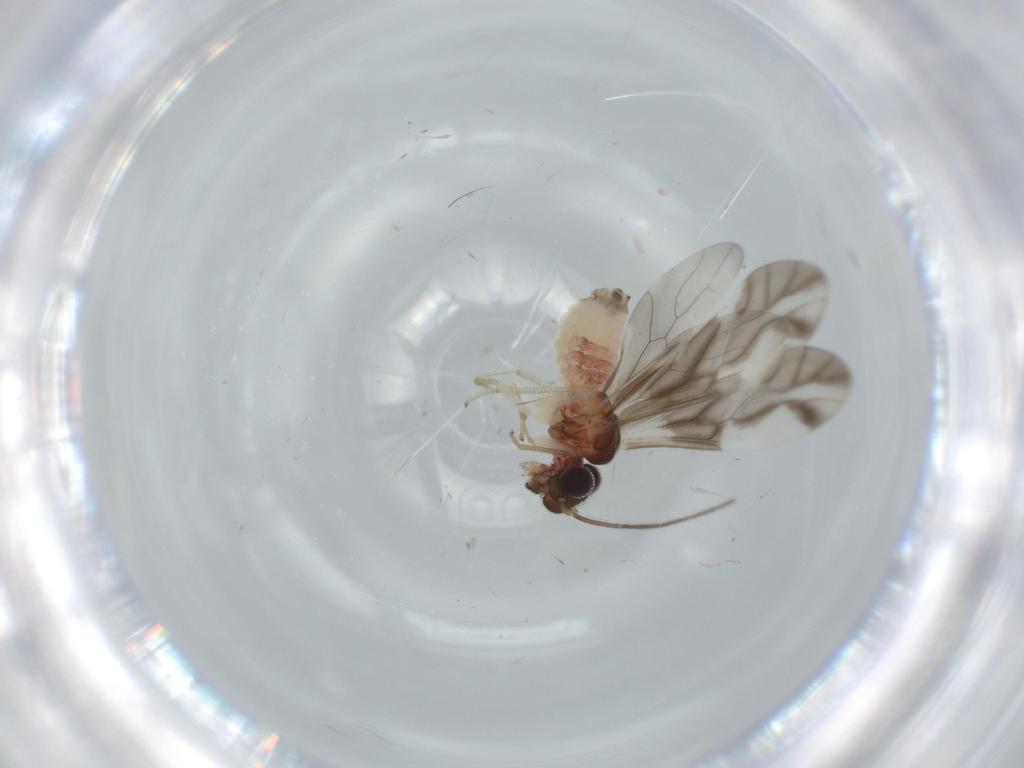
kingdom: Animalia
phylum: Arthropoda
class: Insecta
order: Psocodea
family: Caeciliusidae
